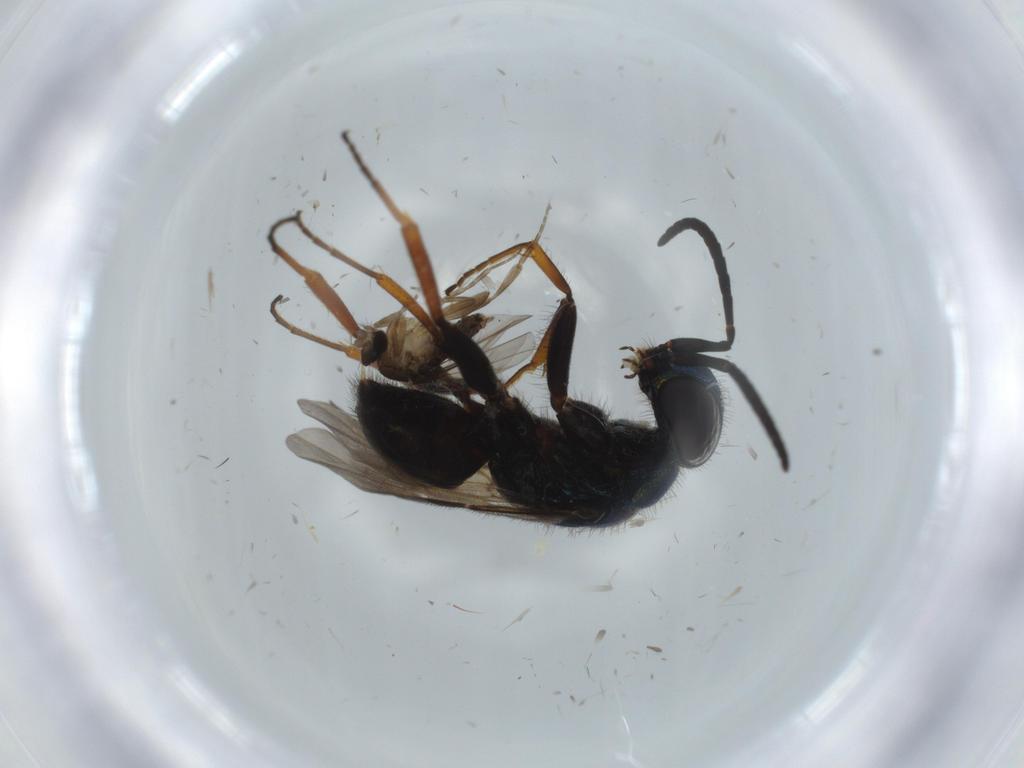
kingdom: Animalia
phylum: Arthropoda
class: Insecta
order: Diptera
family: Phoridae
